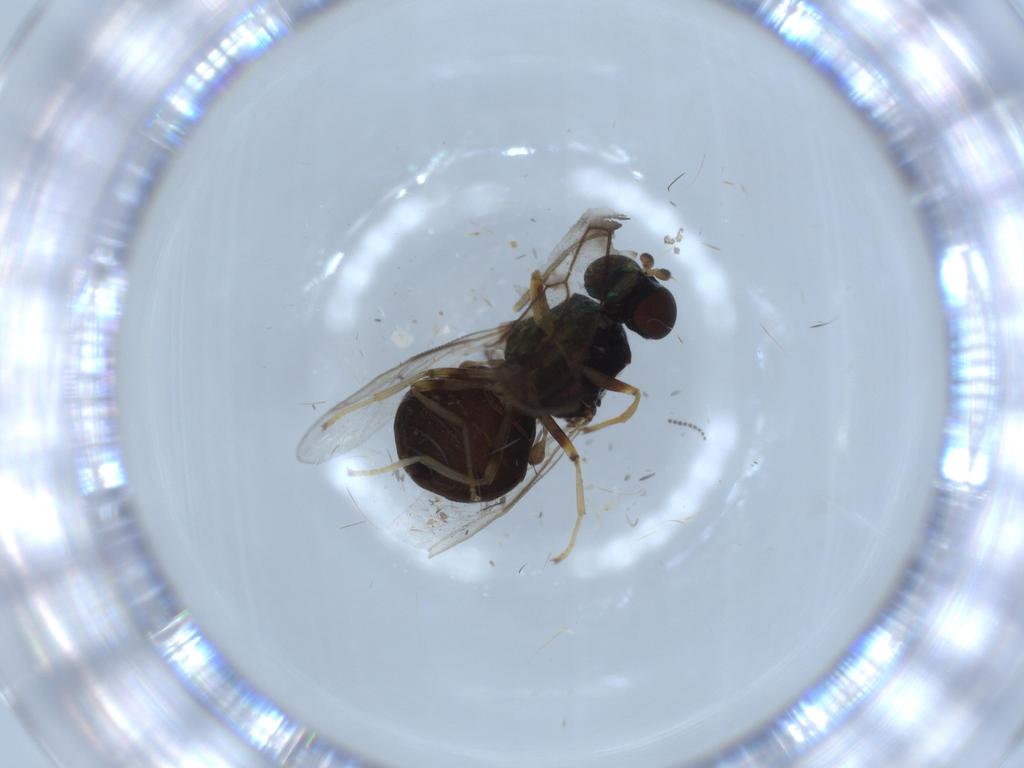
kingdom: Animalia
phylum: Arthropoda
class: Insecta
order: Diptera
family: Stratiomyidae
